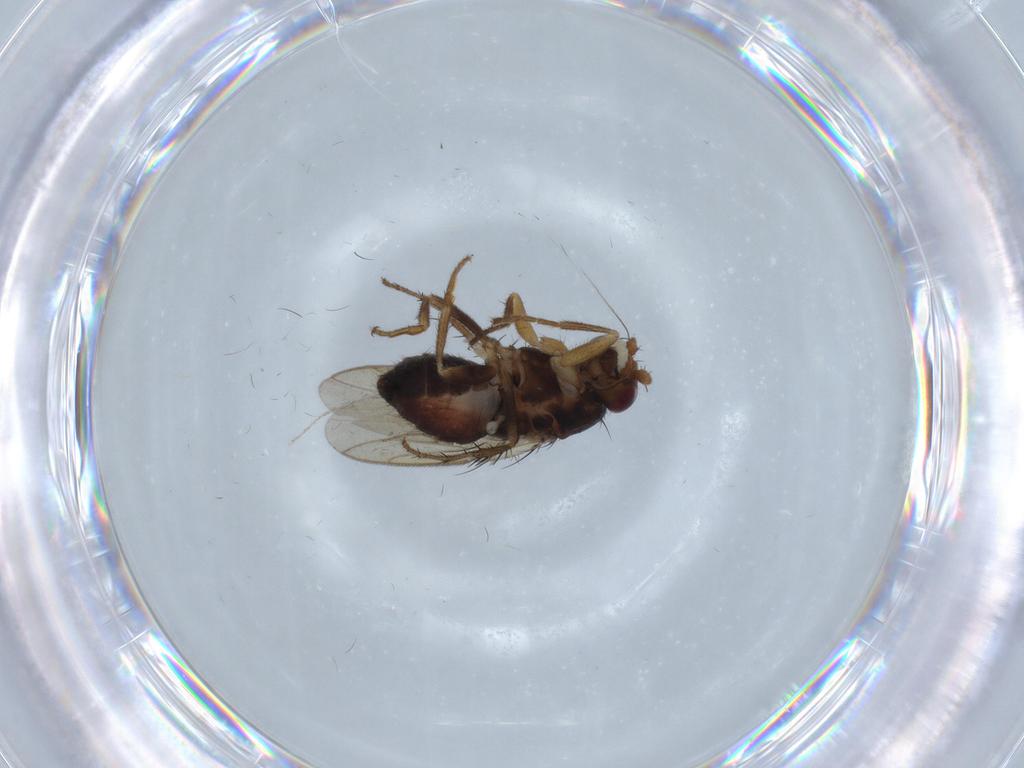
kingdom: Animalia
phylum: Arthropoda
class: Insecta
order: Diptera
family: Sphaeroceridae
